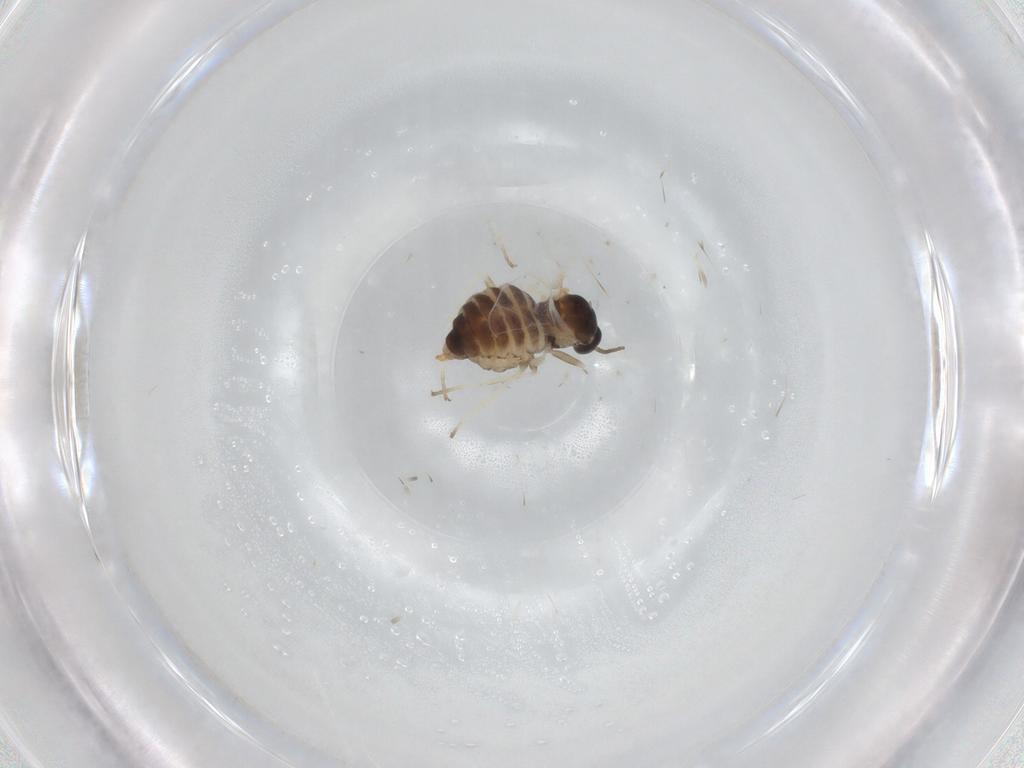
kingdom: Animalia
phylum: Arthropoda
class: Insecta
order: Diptera
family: Cecidomyiidae
